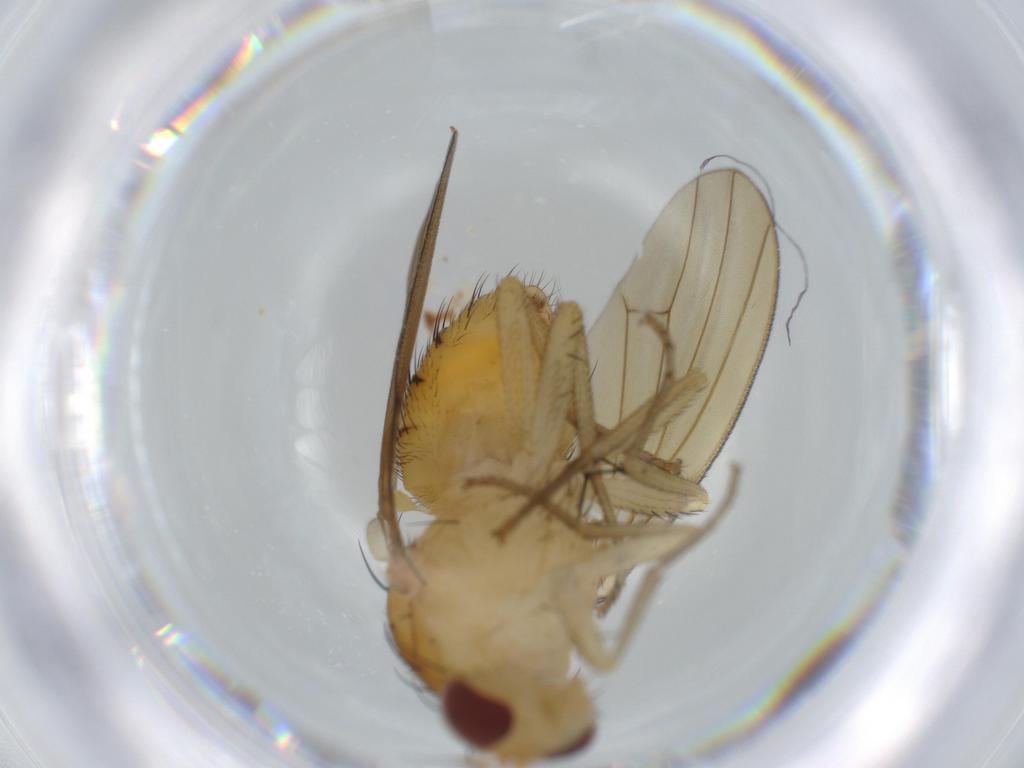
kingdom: Animalia
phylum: Arthropoda
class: Insecta
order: Diptera
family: Lauxaniidae
